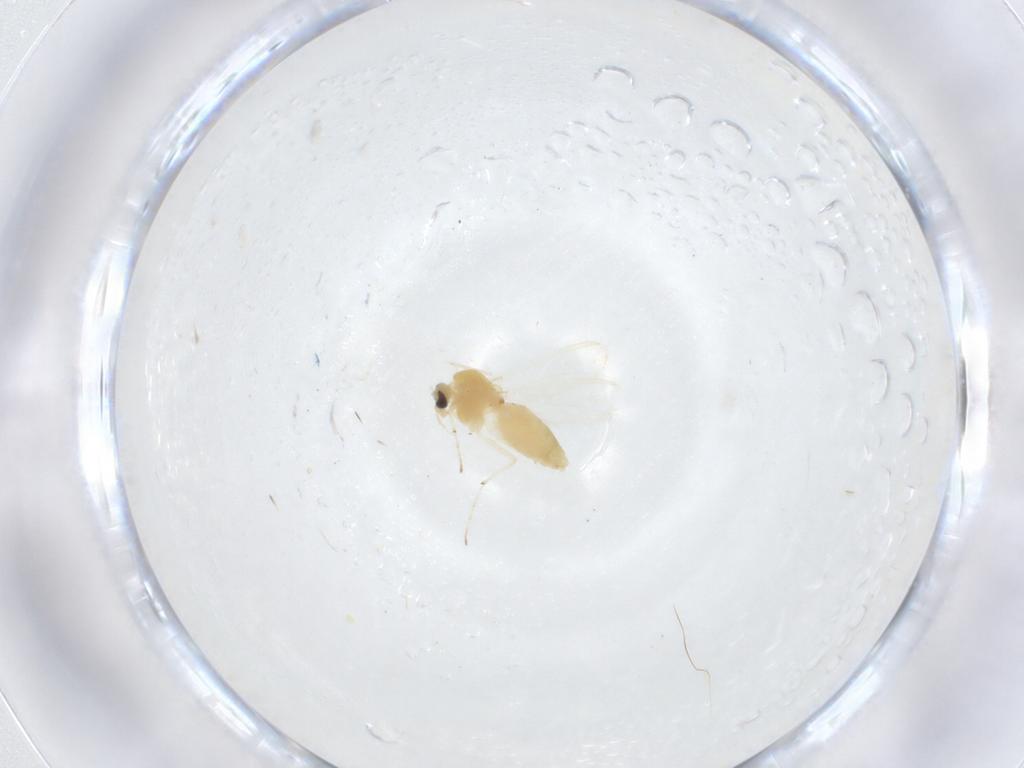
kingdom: Animalia
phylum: Arthropoda
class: Insecta
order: Diptera
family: Chironomidae
